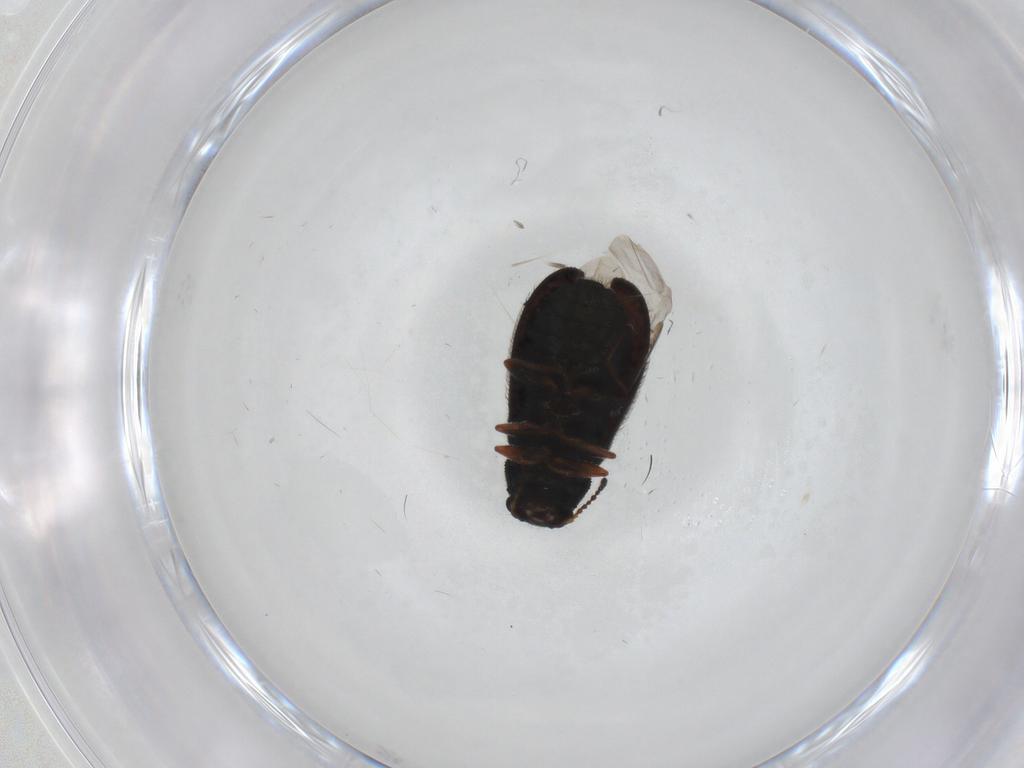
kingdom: Animalia
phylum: Arthropoda
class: Insecta
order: Coleoptera
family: Melyridae
